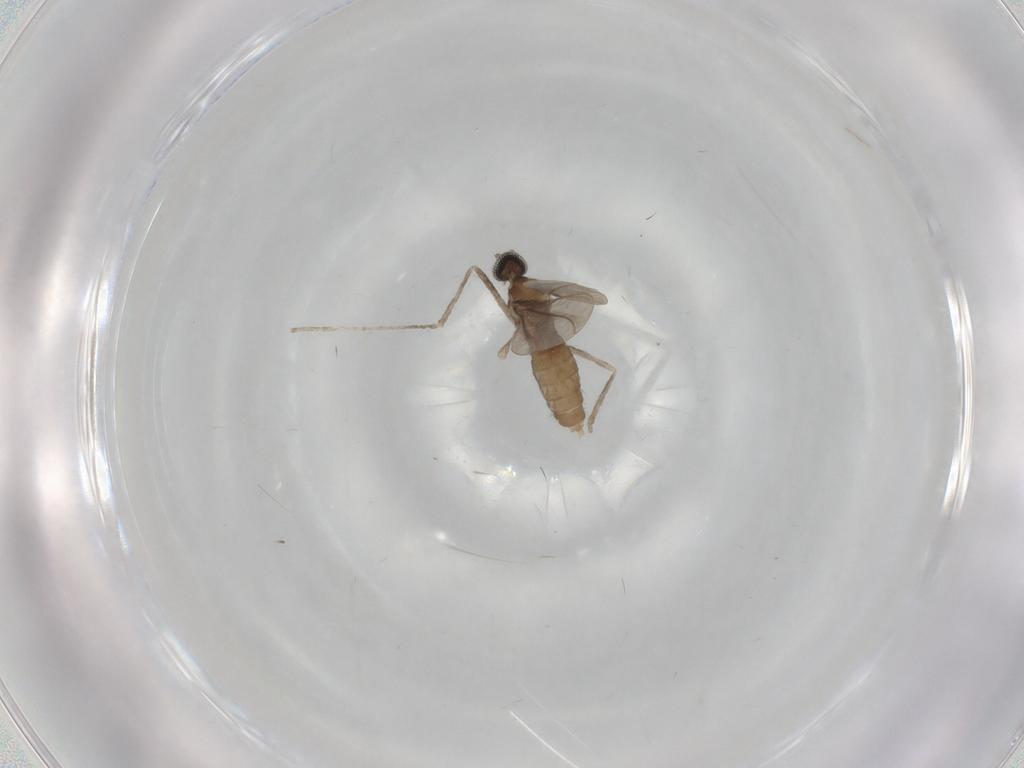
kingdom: Animalia
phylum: Arthropoda
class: Insecta
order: Diptera
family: Cecidomyiidae
